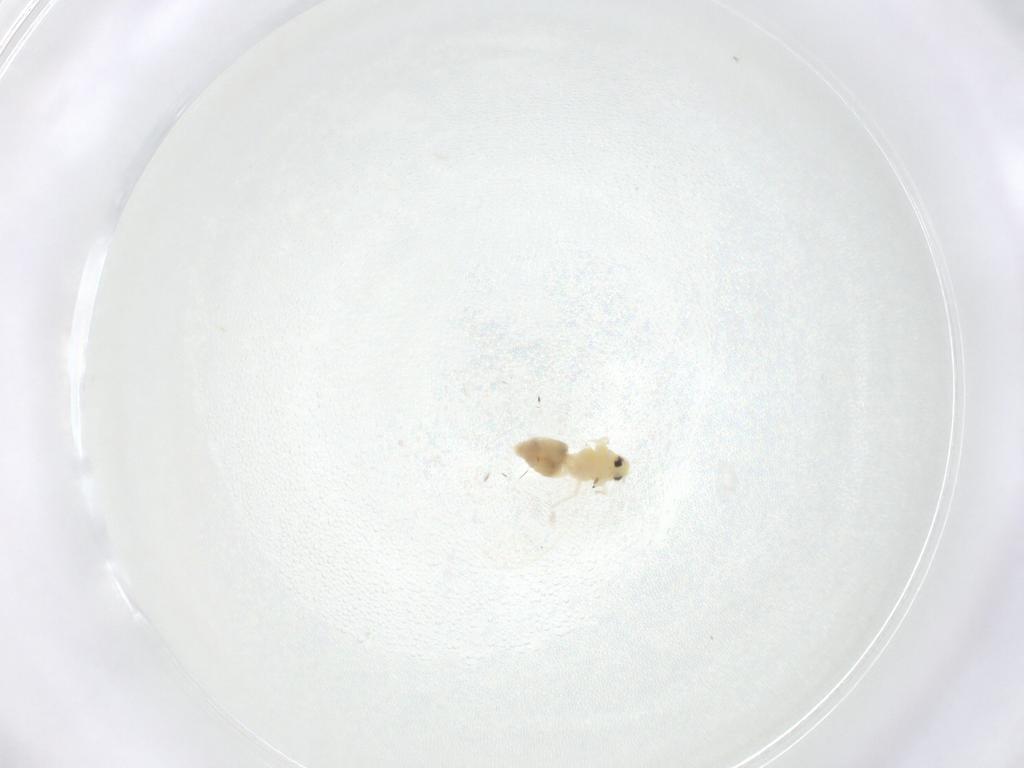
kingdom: Animalia
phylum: Arthropoda
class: Insecta
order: Hemiptera
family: Aleyrodidae
